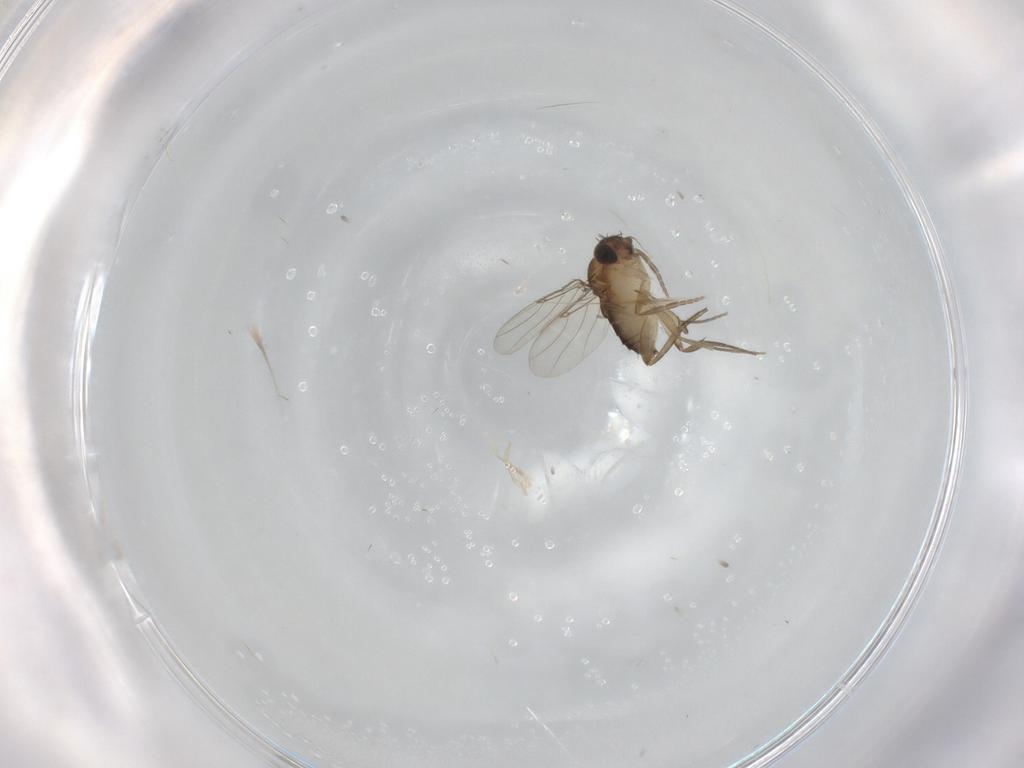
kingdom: Animalia
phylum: Arthropoda
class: Insecta
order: Diptera
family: Phoridae
